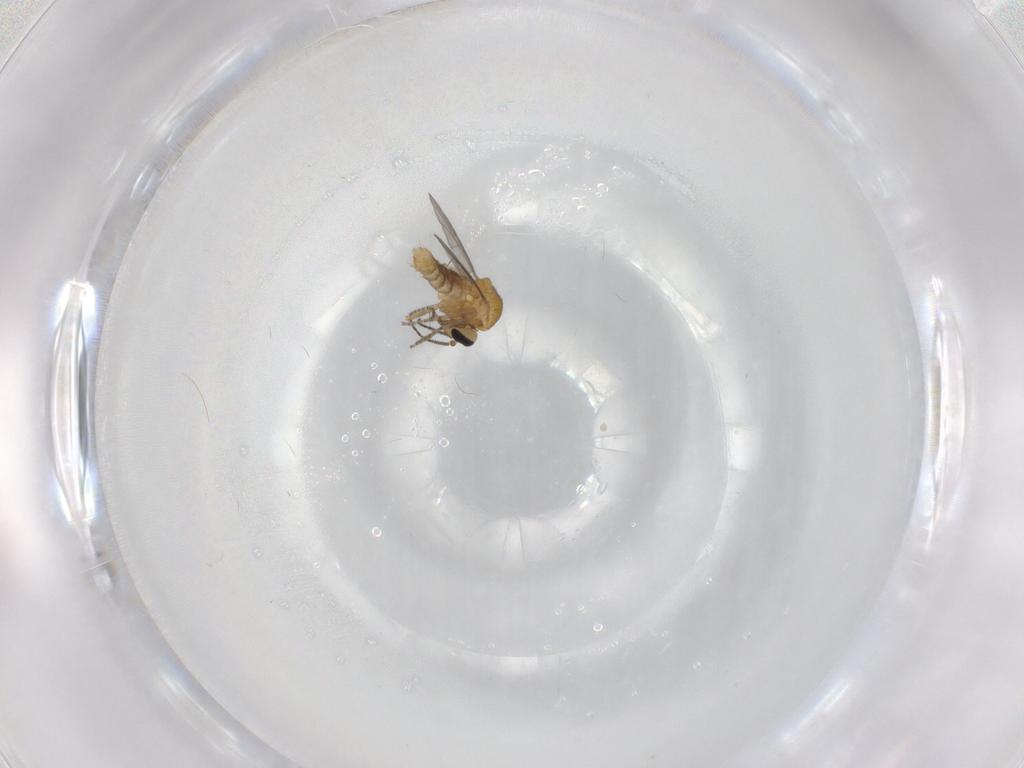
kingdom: Animalia
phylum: Arthropoda
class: Insecta
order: Diptera
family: Ceratopogonidae
